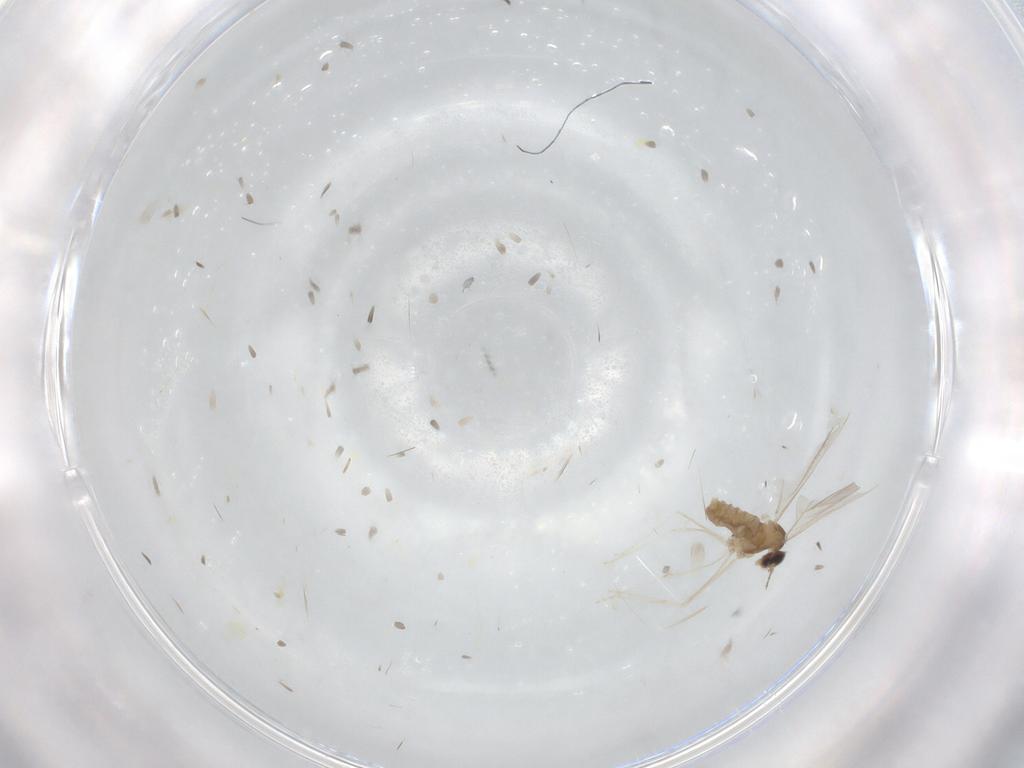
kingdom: Animalia
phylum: Arthropoda
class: Insecta
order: Diptera
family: Cecidomyiidae
